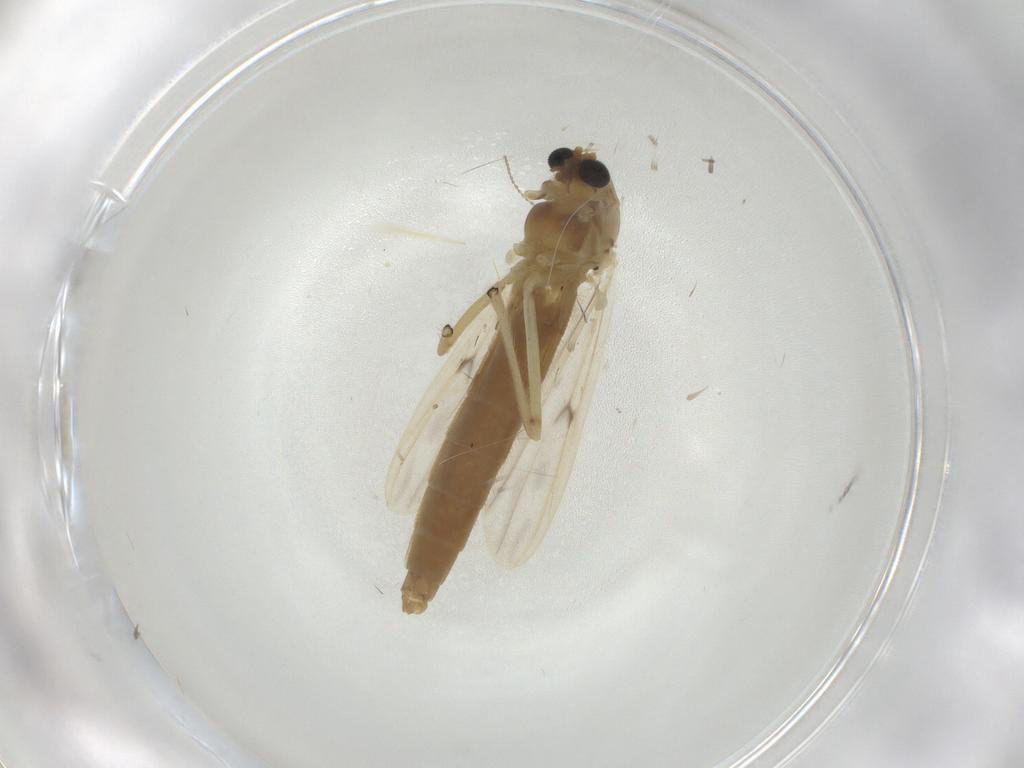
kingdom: Animalia
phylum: Arthropoda
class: Insecta
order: Diptera
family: Chironomidae
